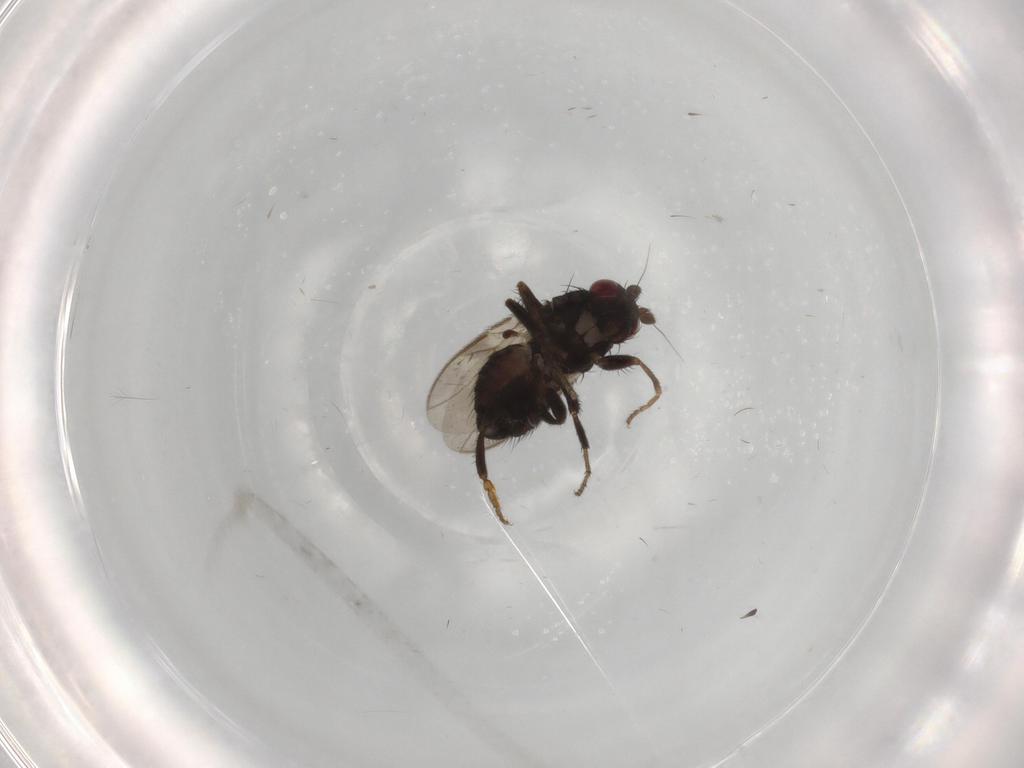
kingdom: Animalia
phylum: Arthropoda
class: Insecta
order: Diptera
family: Sphaeroceridae
